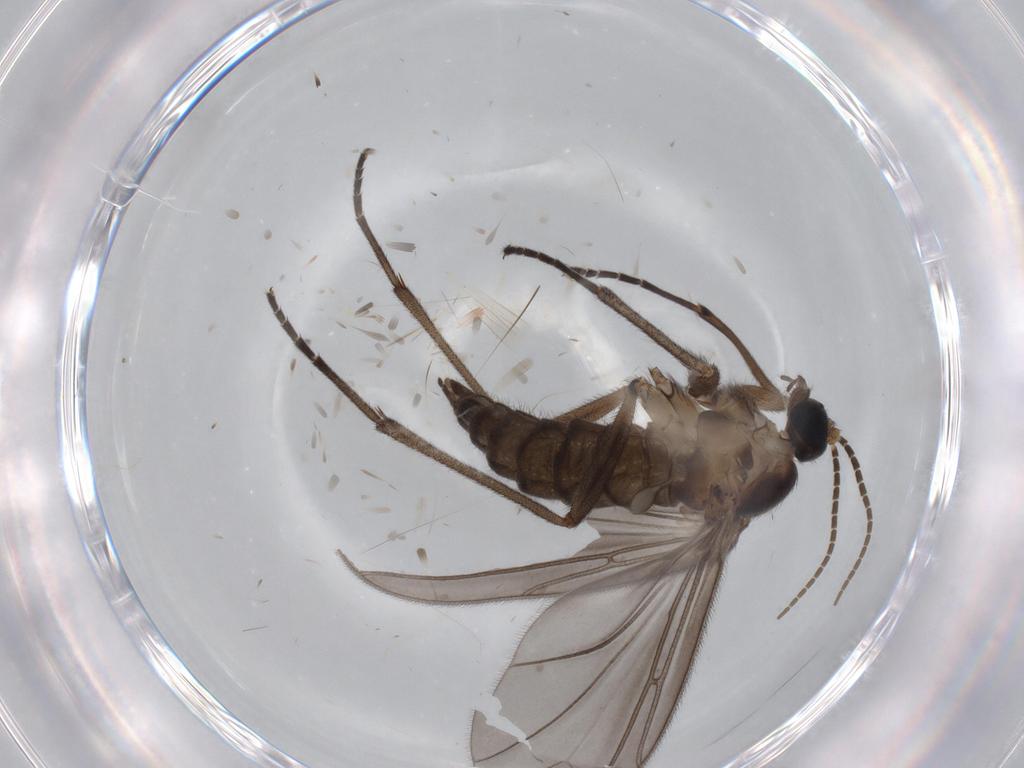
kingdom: Animalia
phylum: Arthropoda
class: Insecta
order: Diptera
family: Sciaridae
